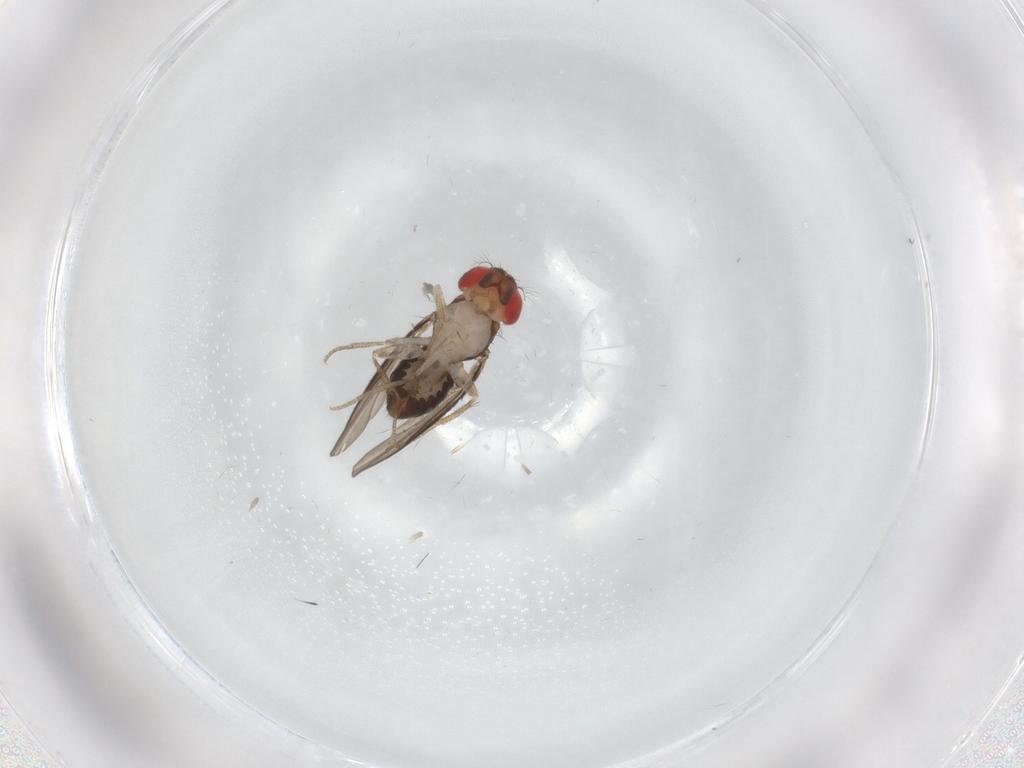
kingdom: Animalia
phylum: Arthropoda
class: Insecta
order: Diptera
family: Drosophilidae
